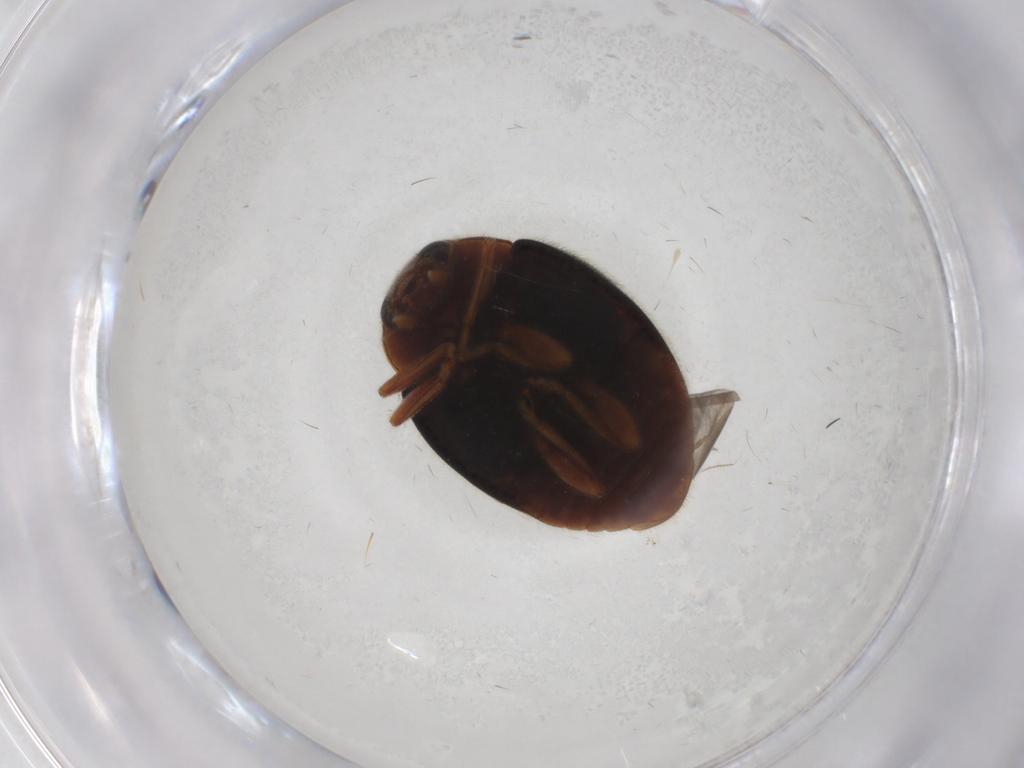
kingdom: Animalia
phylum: Arthropoda
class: Insecta
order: Coleoptera
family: Coccinellidae
